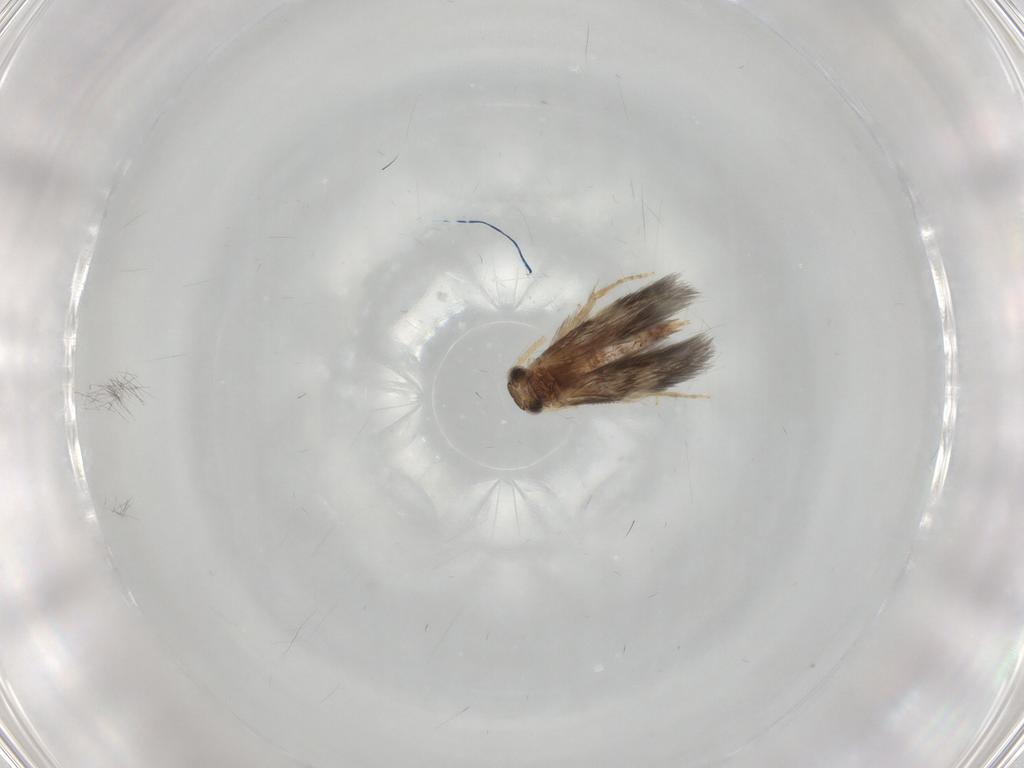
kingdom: Animalia
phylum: Arthropoda
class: Insecta
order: Trichoptera
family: Hydroptilidae
